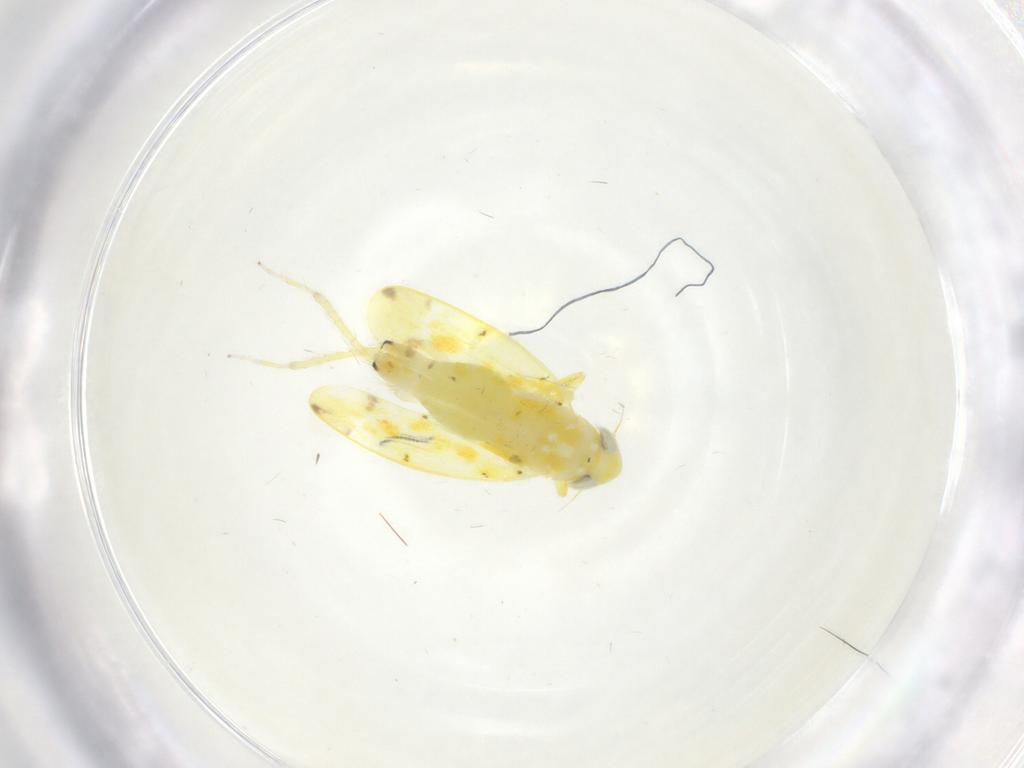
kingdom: Animalia
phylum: Arthropoda
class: Insecta
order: Hemiptera
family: Cicadellidae
